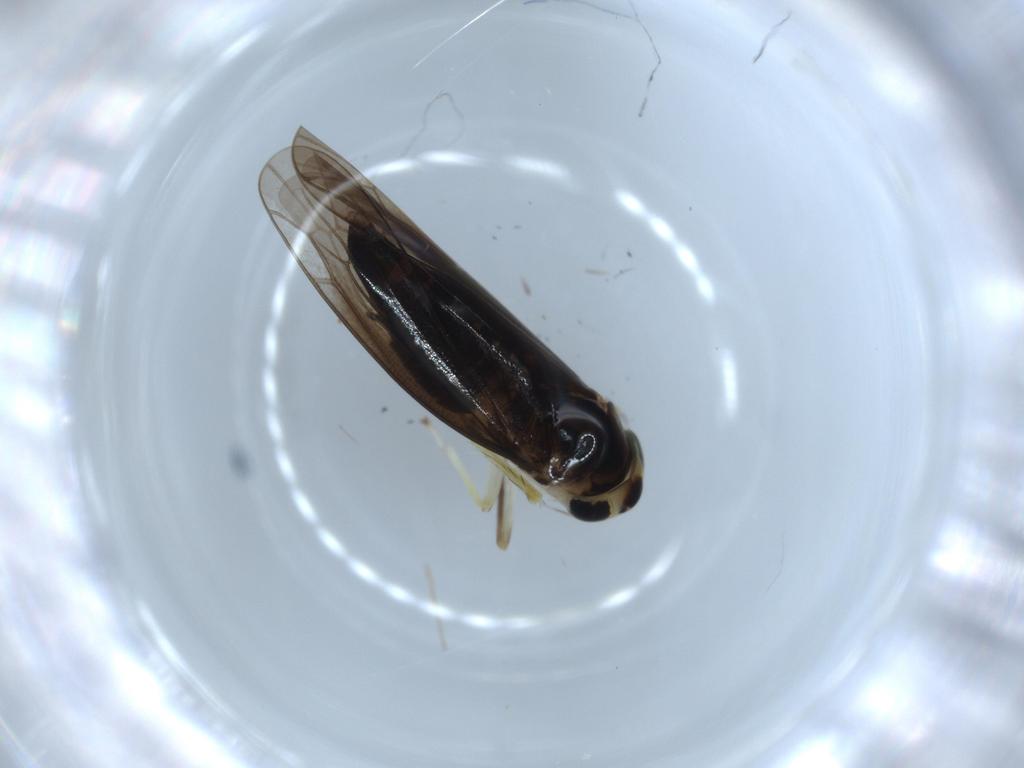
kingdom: Animalia
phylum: Arthropoda
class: Insecta
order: Hemiptera
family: Cicadellidae
